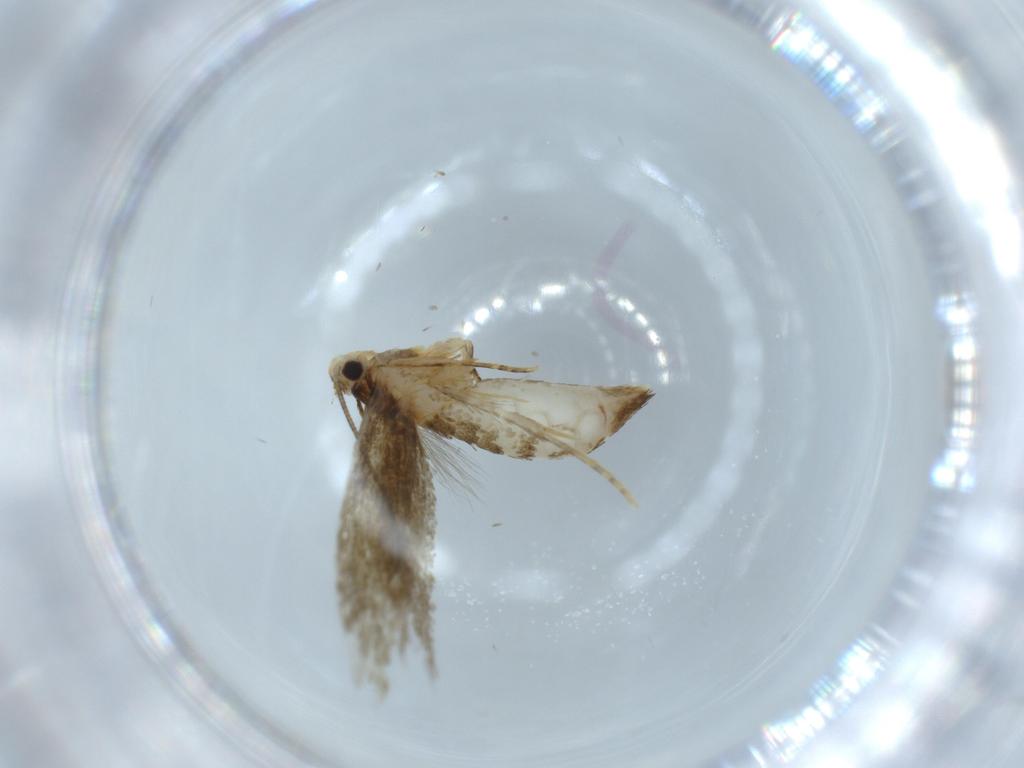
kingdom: Animalia
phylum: Arthropoda
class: Insecta
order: Lepidoptera
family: Tineidae
